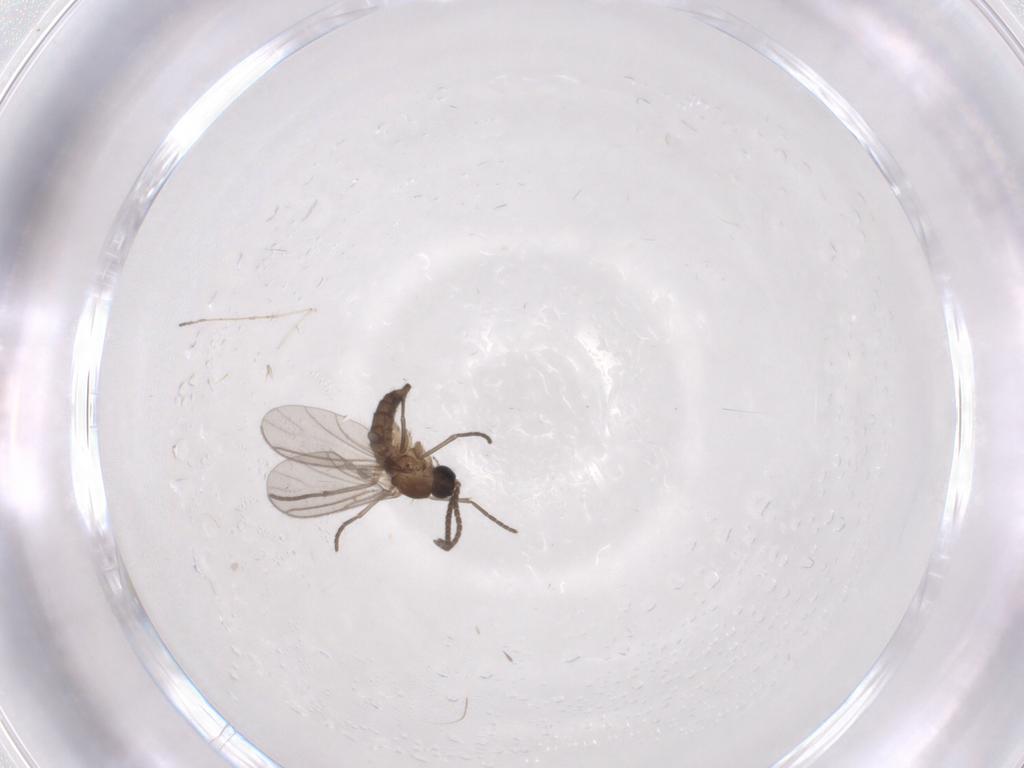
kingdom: Animalia
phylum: Arthropoda
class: Insecta
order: Diptera
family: Sciaridae
